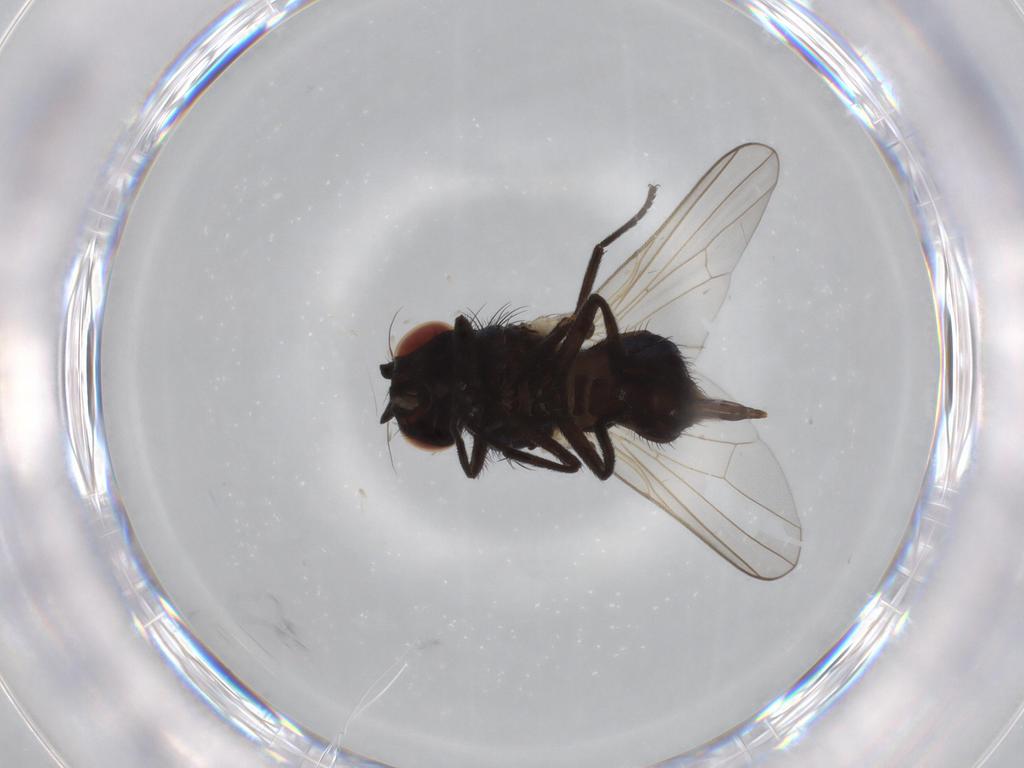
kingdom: Animalia
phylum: Arthropoda
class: Insecta
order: Diptera
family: Lonchaeidae
